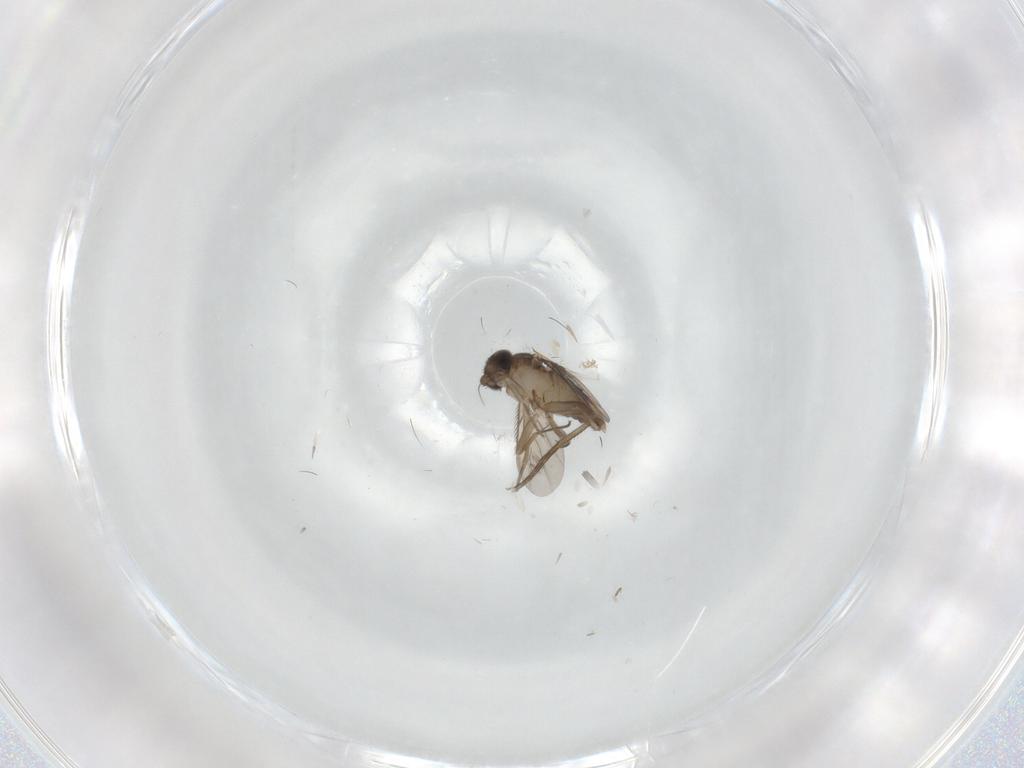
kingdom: Animalia
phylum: Arthropoda
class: Insecta
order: Diptera
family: Phoridae
